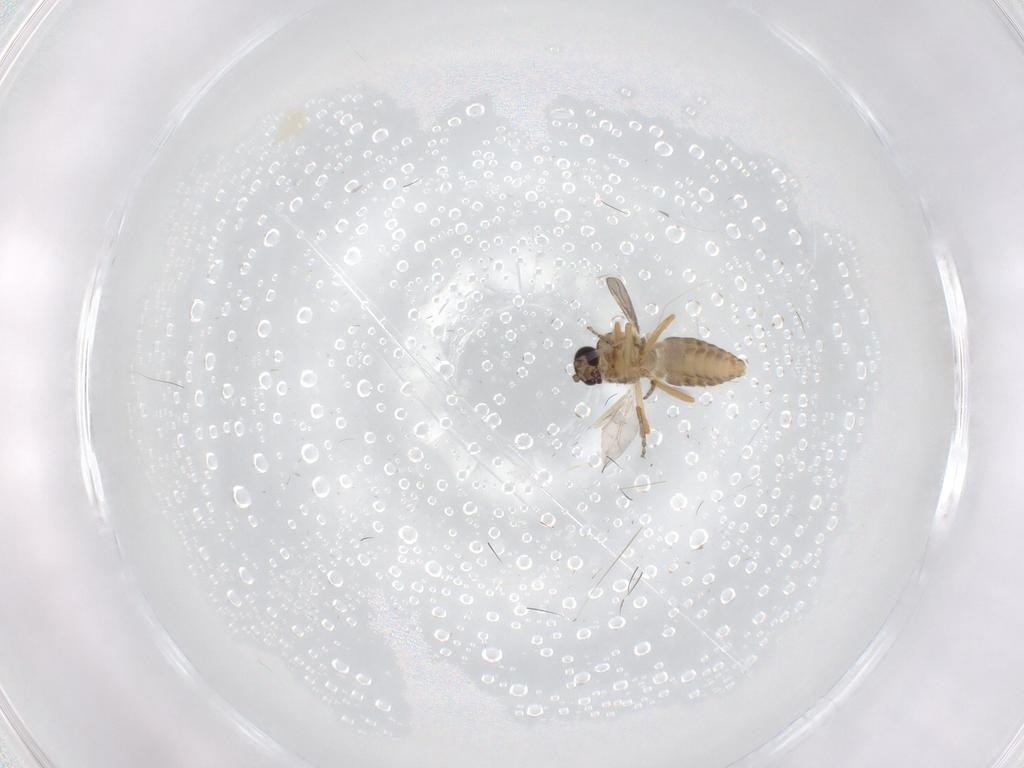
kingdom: Animalia
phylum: Arthropoda
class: Insecta
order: Diptera
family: Ceratopogonidae
